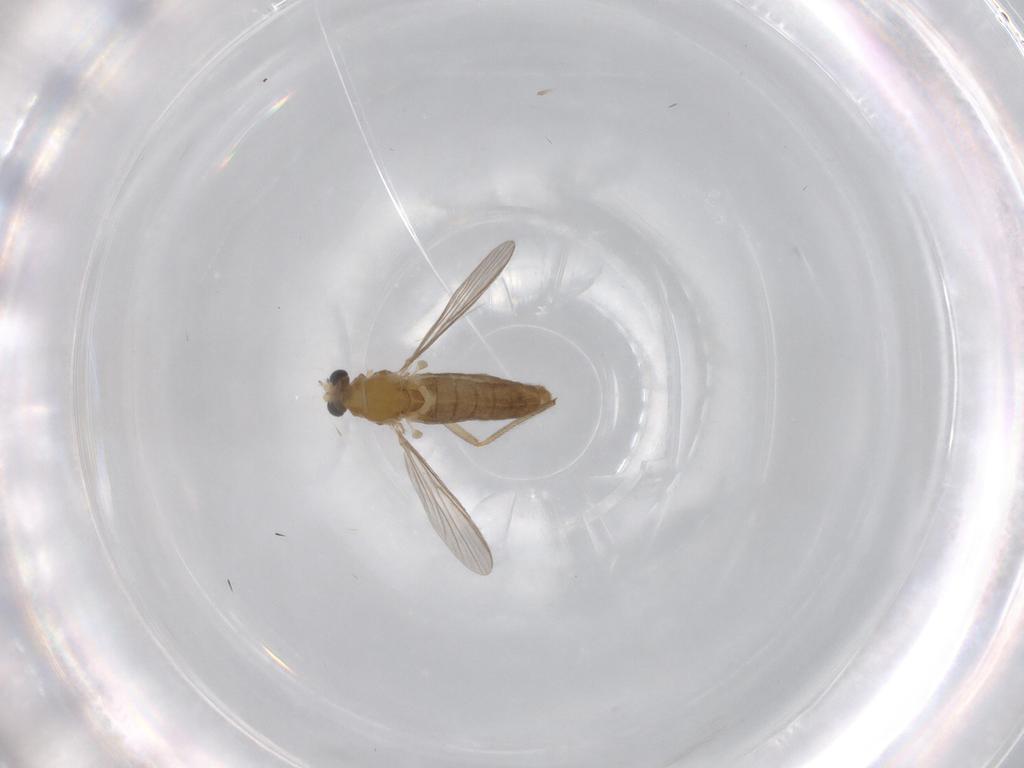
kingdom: Animalia
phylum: Arthropoda
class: Insecta
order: Diptera
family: Chironomidae
